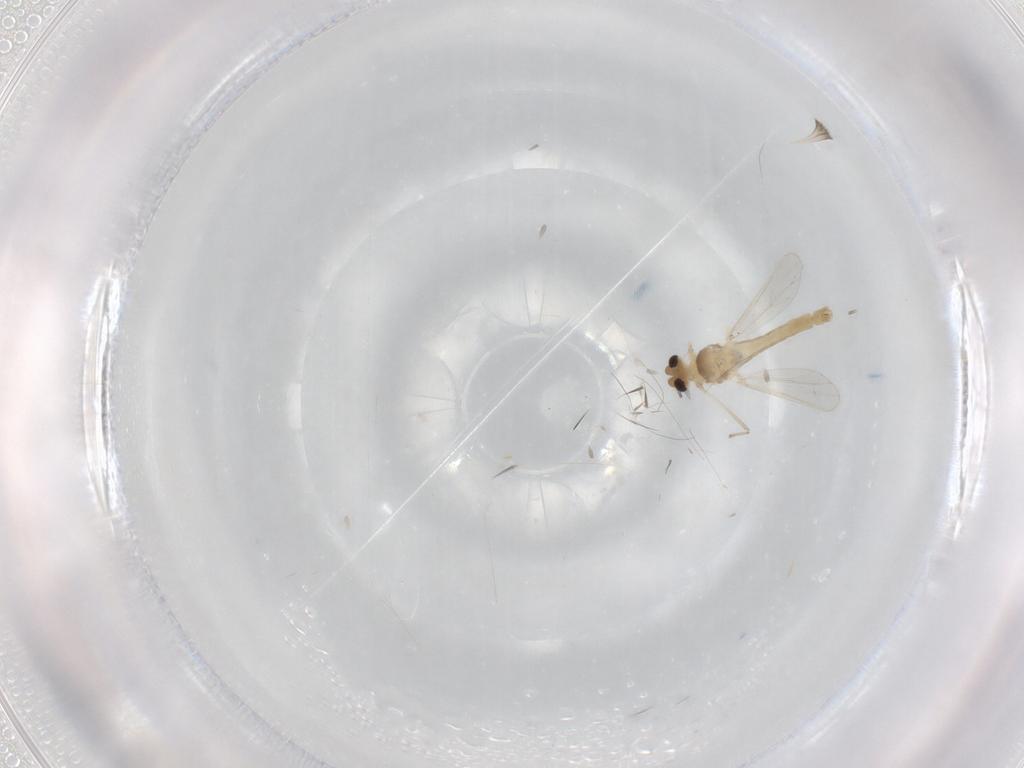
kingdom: Animalia
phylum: Arthropoda
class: Insecta
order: Diptera
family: Chironomidae
